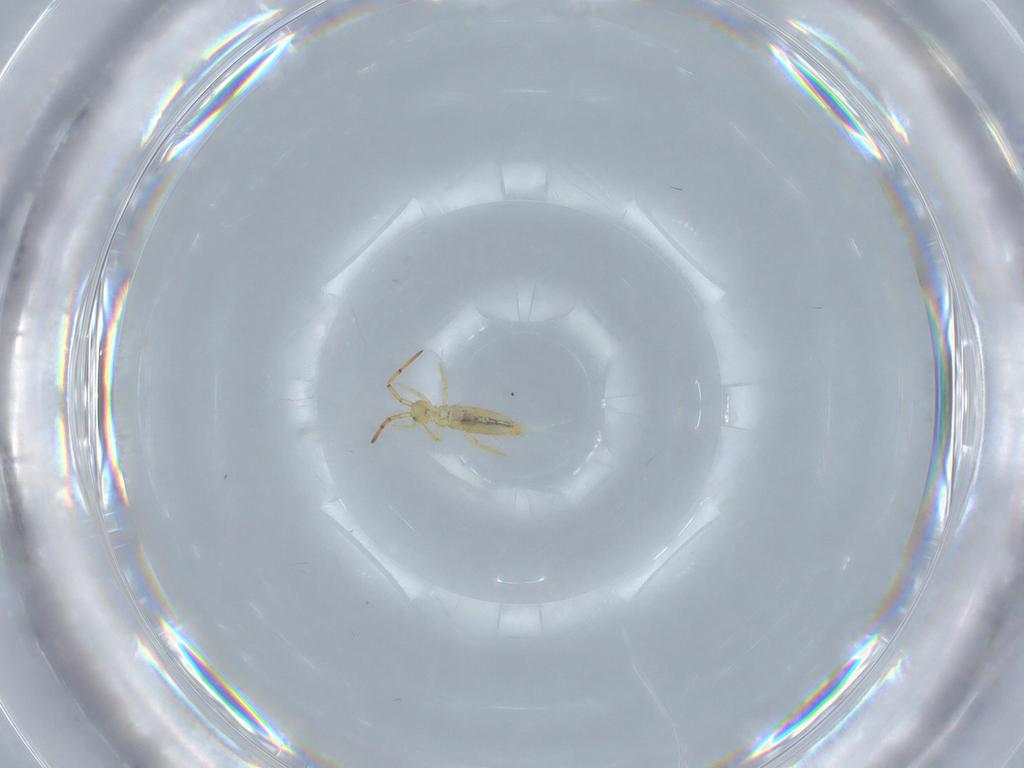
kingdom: Animalia
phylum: Arthropoda
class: Collembola
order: Entomobryomorpha
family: Paronellidae
